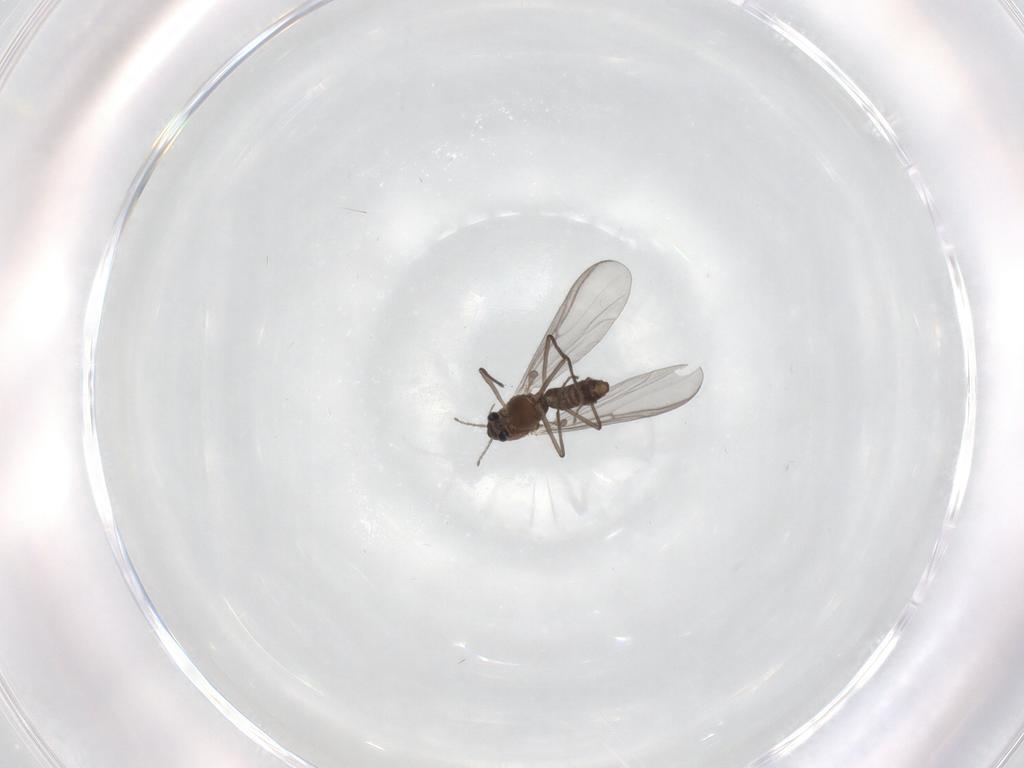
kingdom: Animalia
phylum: Arthropoda
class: Insecta
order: Diptera
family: Chironomidae
